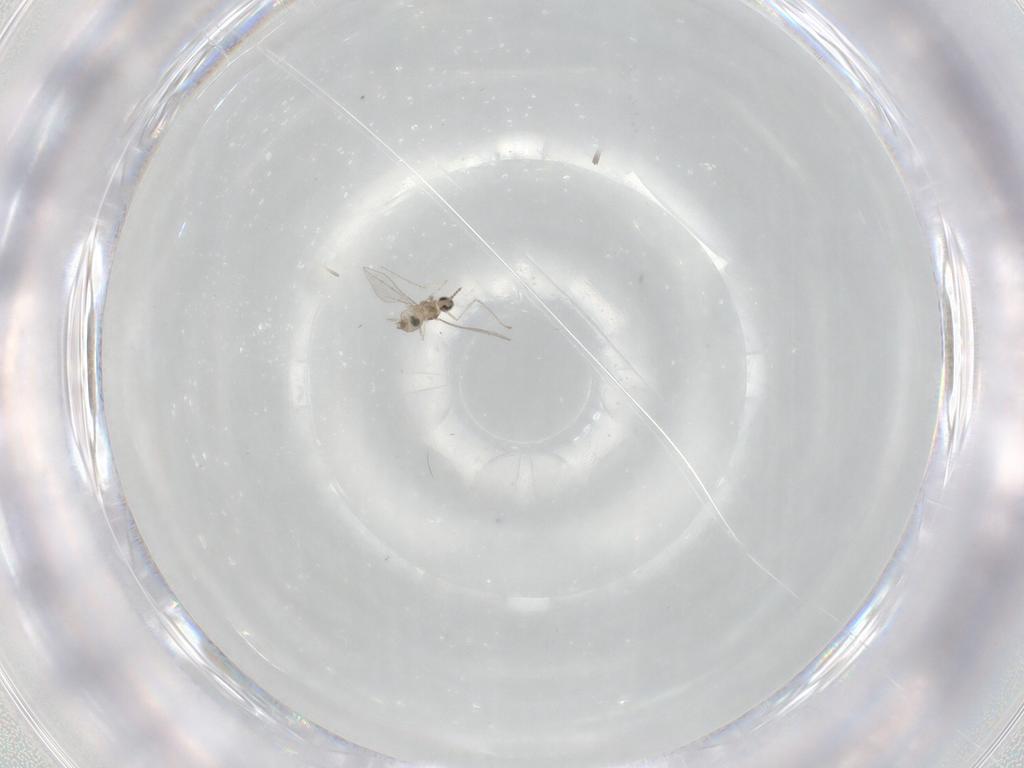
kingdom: Animalia
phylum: Arthropoda
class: Insecta
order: Diptera
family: Cecidomyiidae
